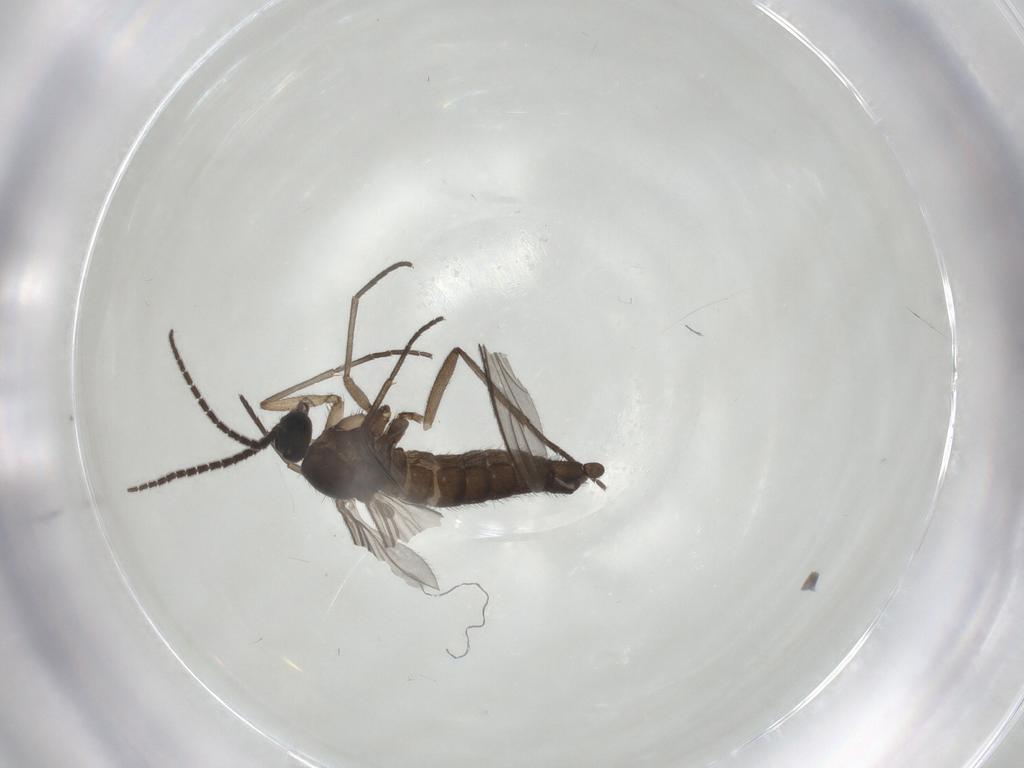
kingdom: Animalia
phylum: Arthropoda
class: Insecta
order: Diptera
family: Sciaridae
